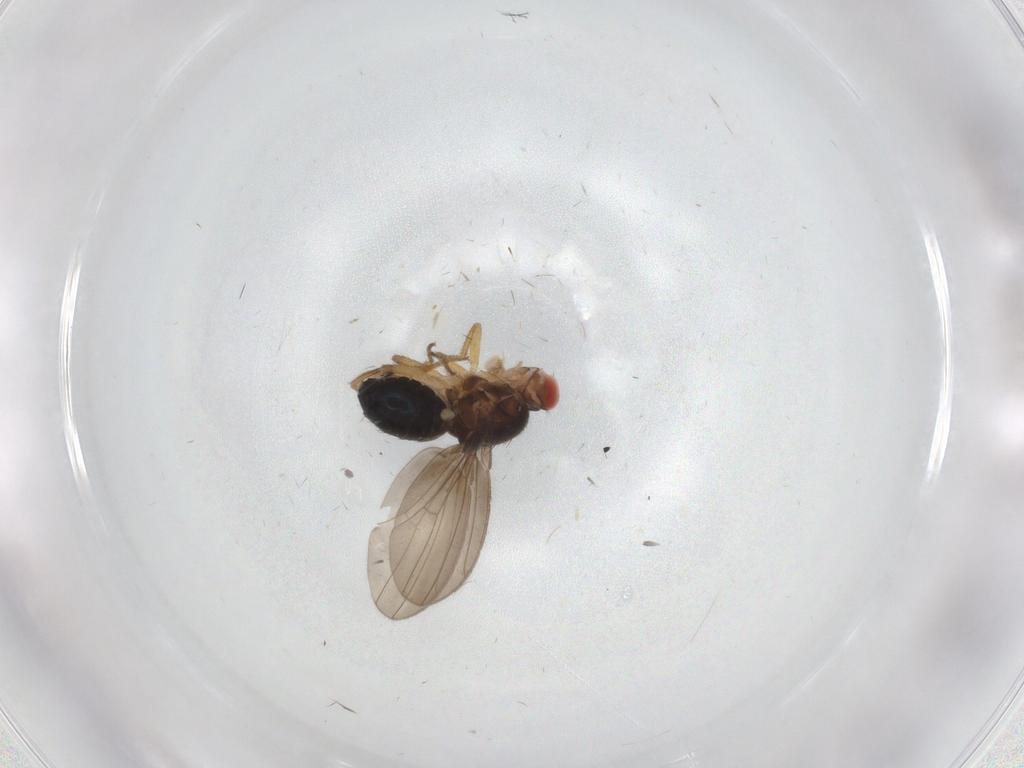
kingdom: Animalia
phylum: Arthropoda
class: Insecta
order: Diptera
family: Drosophilidae
